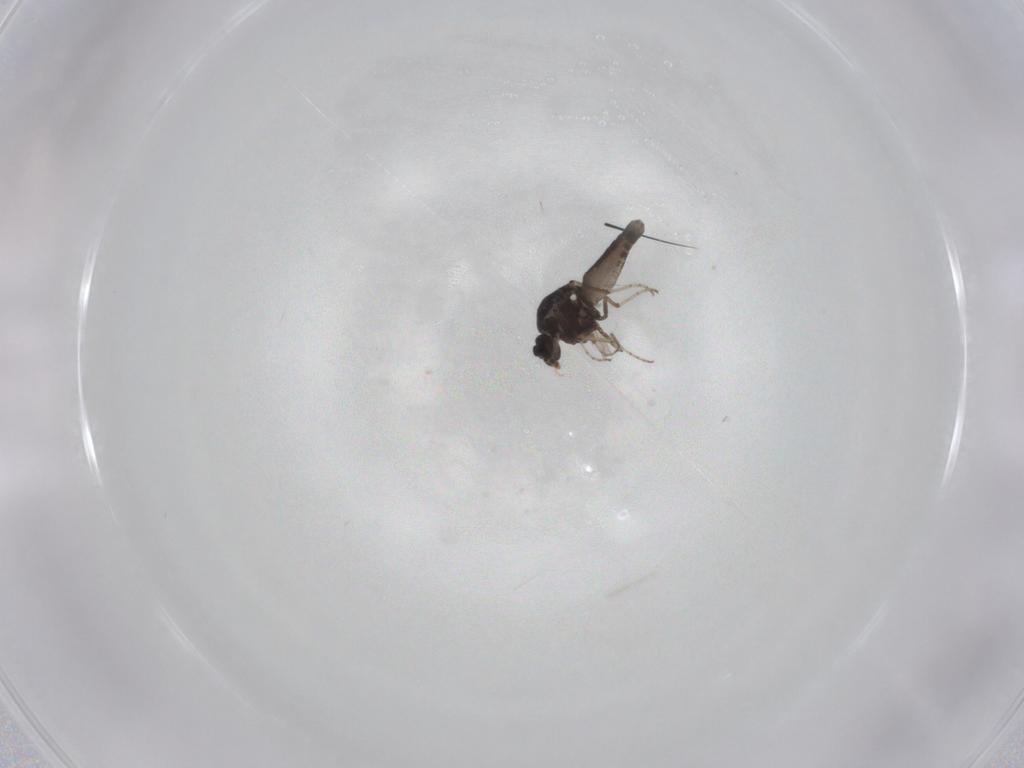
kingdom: Animalia
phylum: Arthropoda
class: Insecta
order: Diptera
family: Ceratopogonidae
